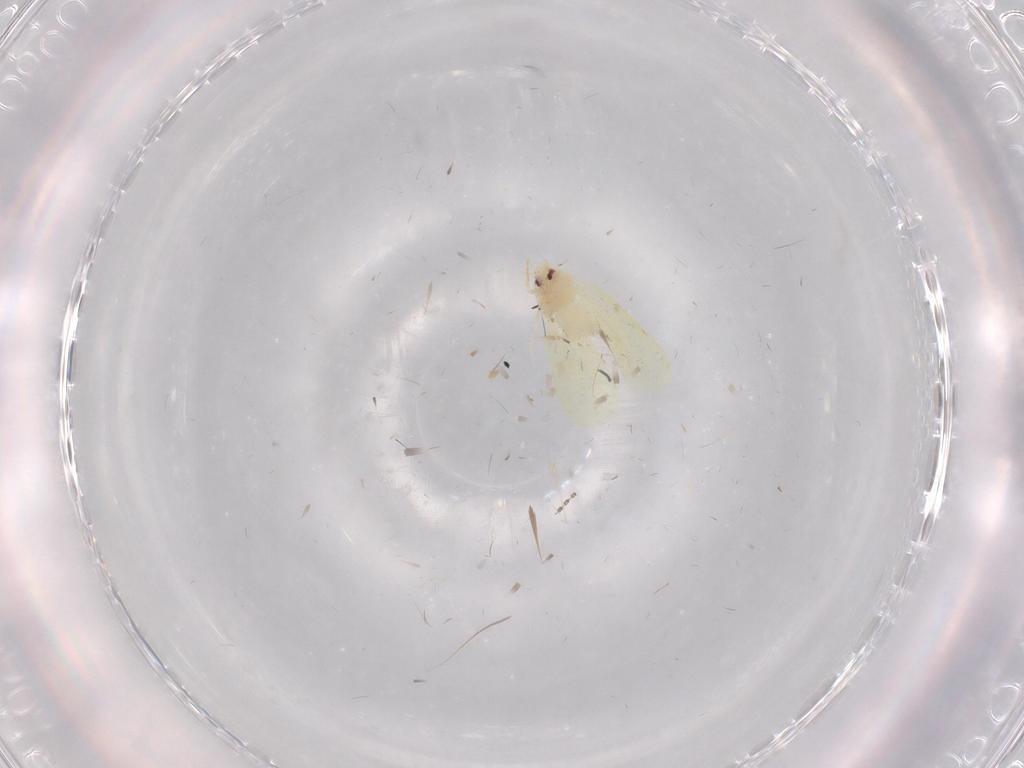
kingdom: Animalia
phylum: Arthropoda
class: Insecta
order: Hemiptera
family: Aleyrodidae
